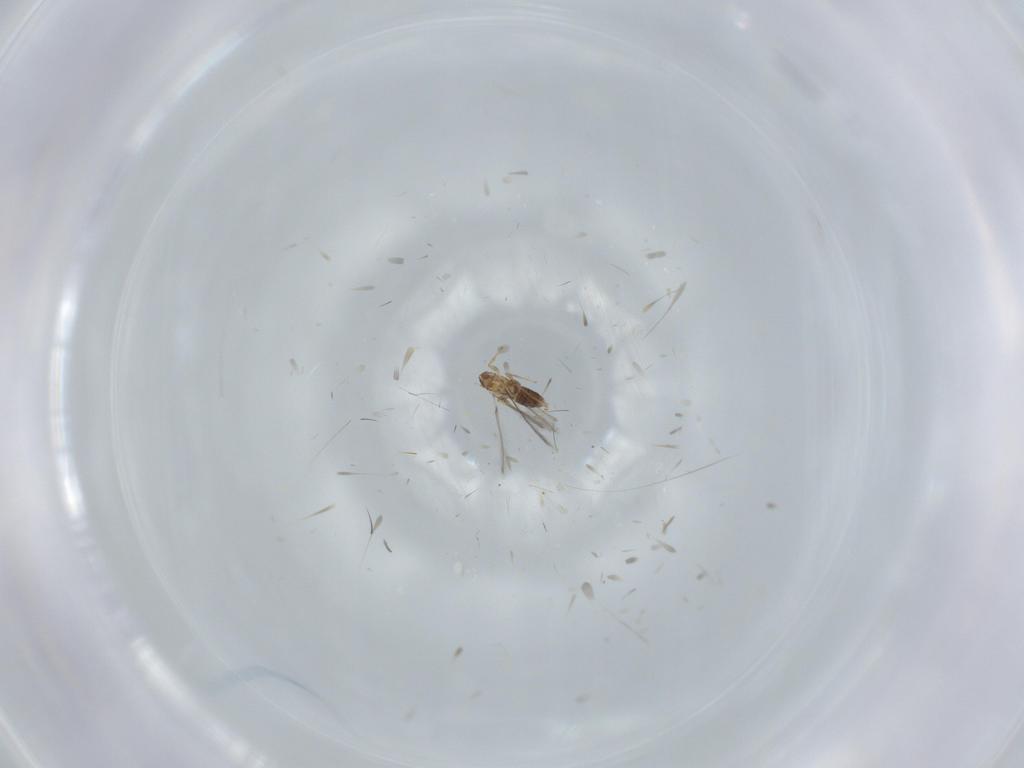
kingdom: Animalia
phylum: Arthropoda
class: Insecta
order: Hymenoptera
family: Mymaridae
